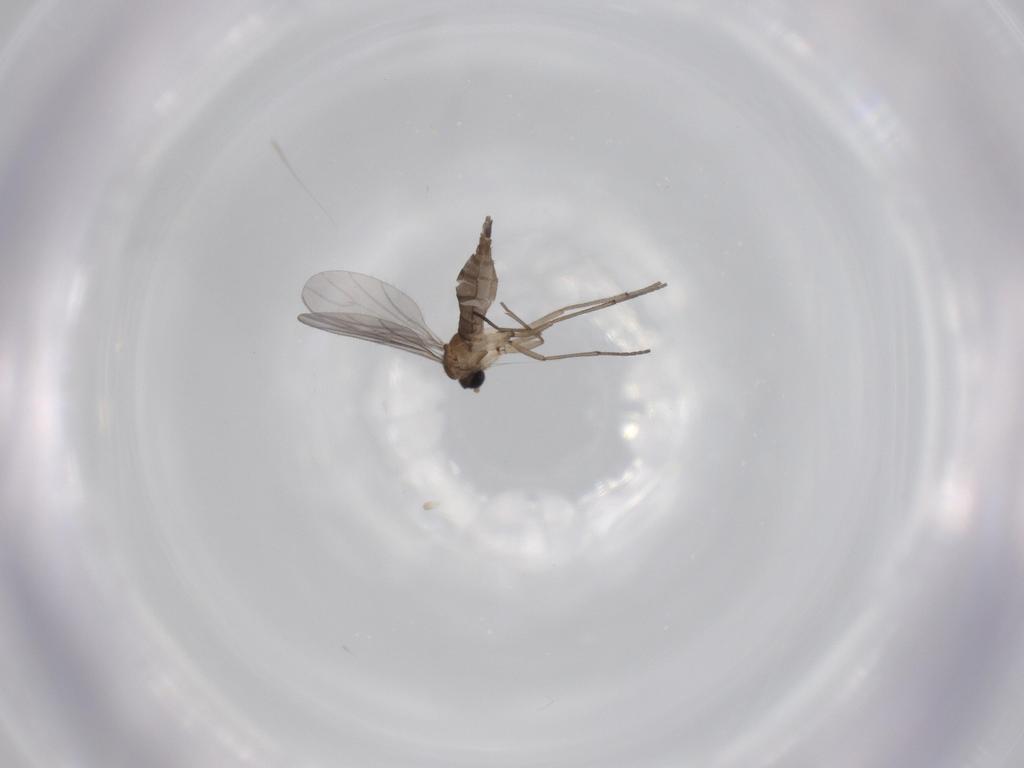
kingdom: Animalia
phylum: Arthropoda
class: Insecta
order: Diptera
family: Sciaridae
